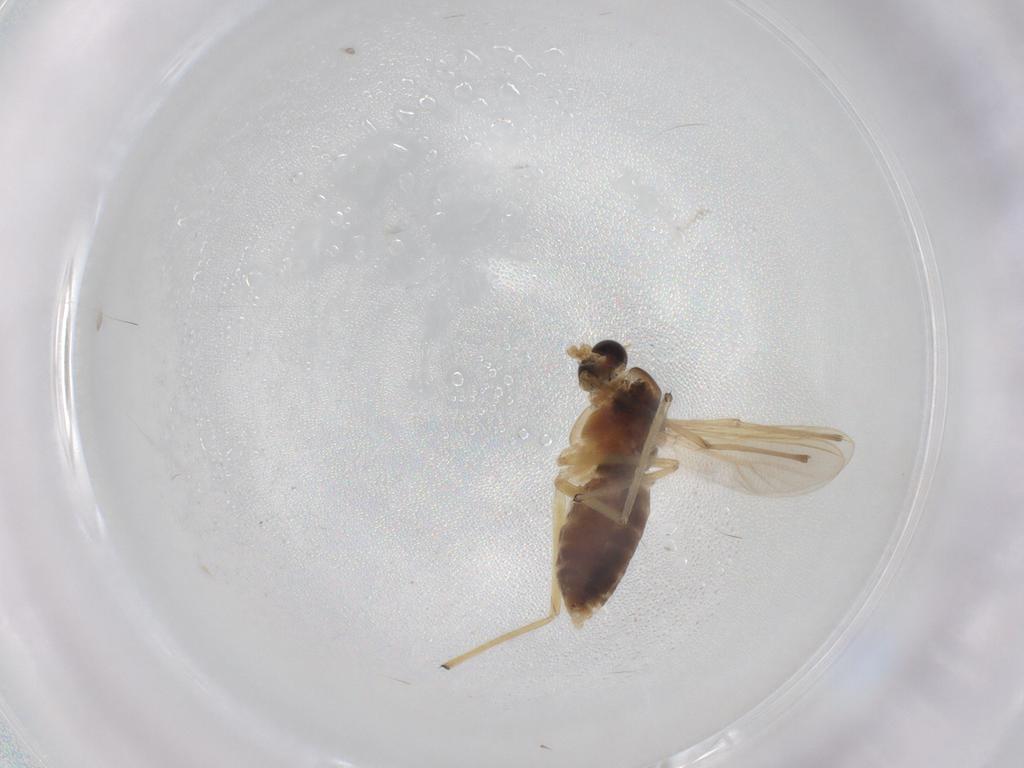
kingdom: Animalia
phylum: Arthropoda
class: Insecta
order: Diptera
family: Chironomidae
